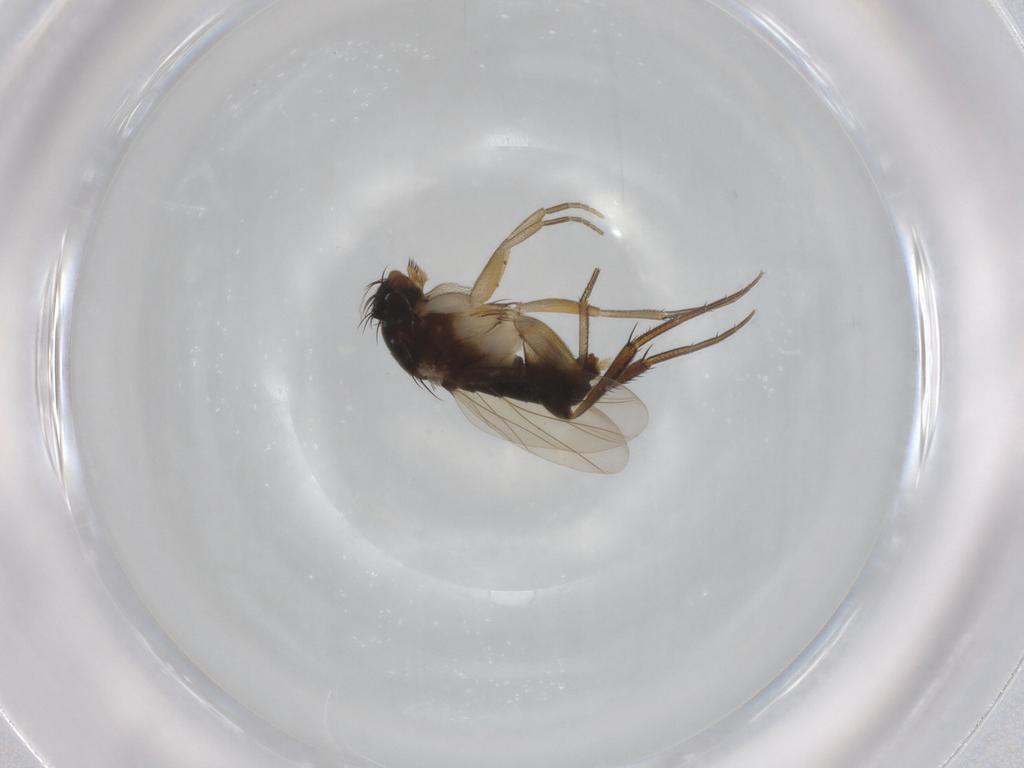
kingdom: Animalia
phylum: Arthropoda
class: Insecta
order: Diptera
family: Phoridae
